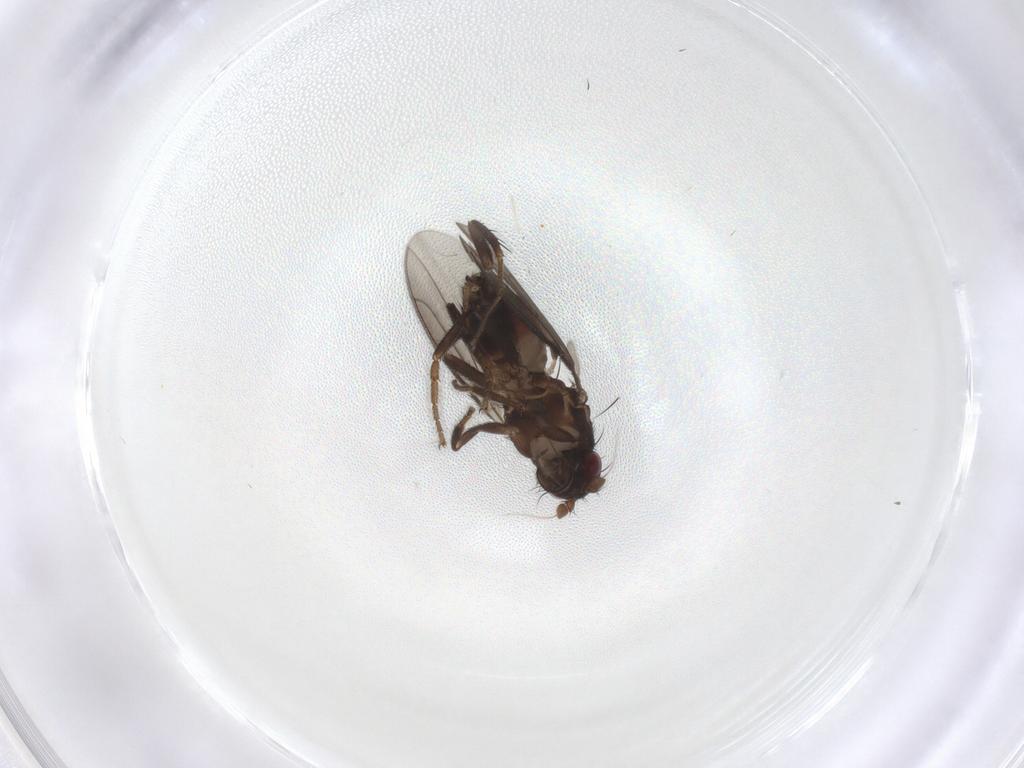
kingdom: Animalia
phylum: Arthropoda
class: Insecta
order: Diptera
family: Sphaeroceridae
